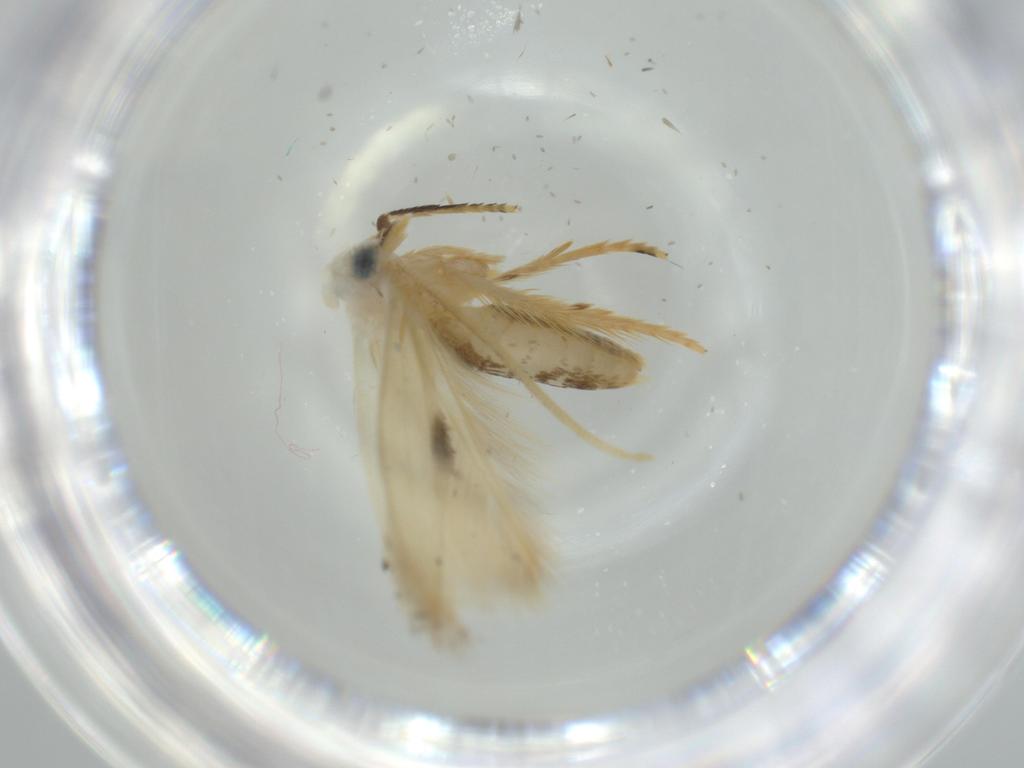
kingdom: Animalia
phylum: Arthropoda
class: Insecta
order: Lepidoptera
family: Opostegidae
